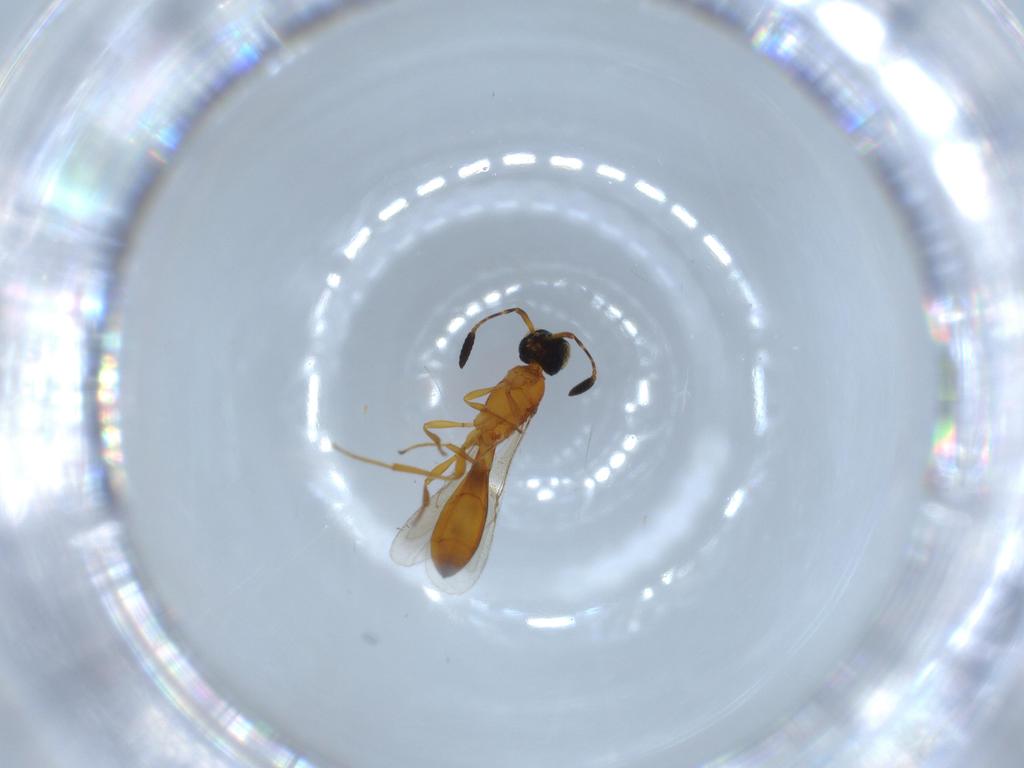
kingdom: Animalia
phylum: Arthropoda
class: Insecta
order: Hymenoptera
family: Scelionidae
